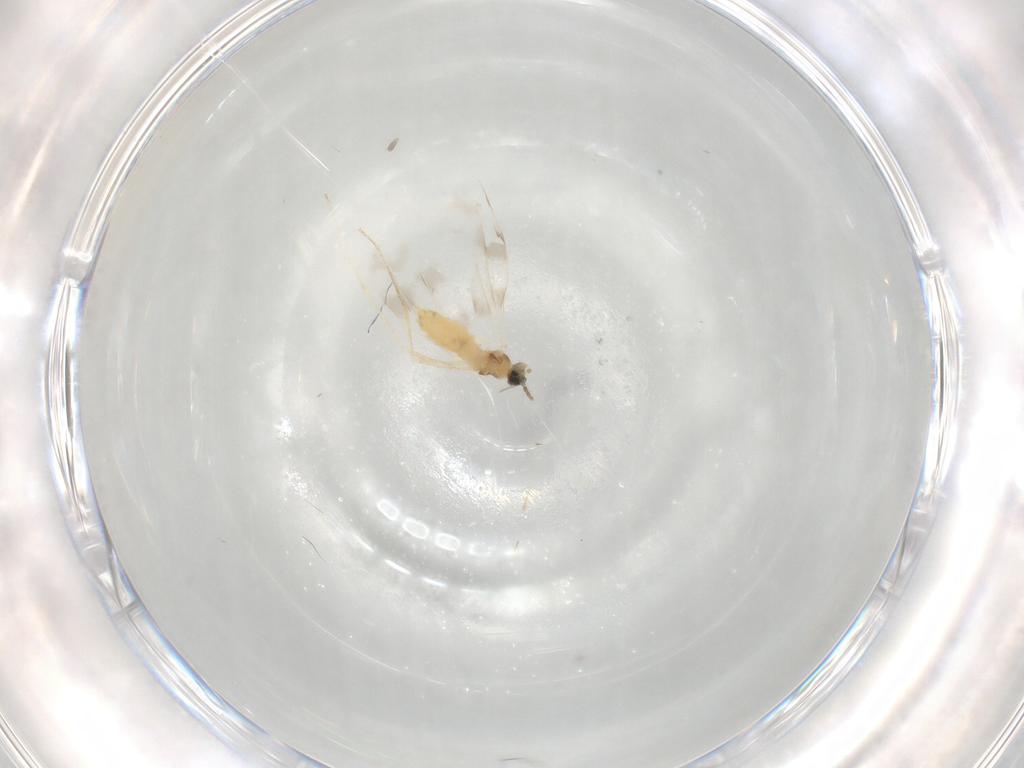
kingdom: Animalia
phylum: Arthropoda
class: Insecta
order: Diptera
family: Cecidomyiidae
